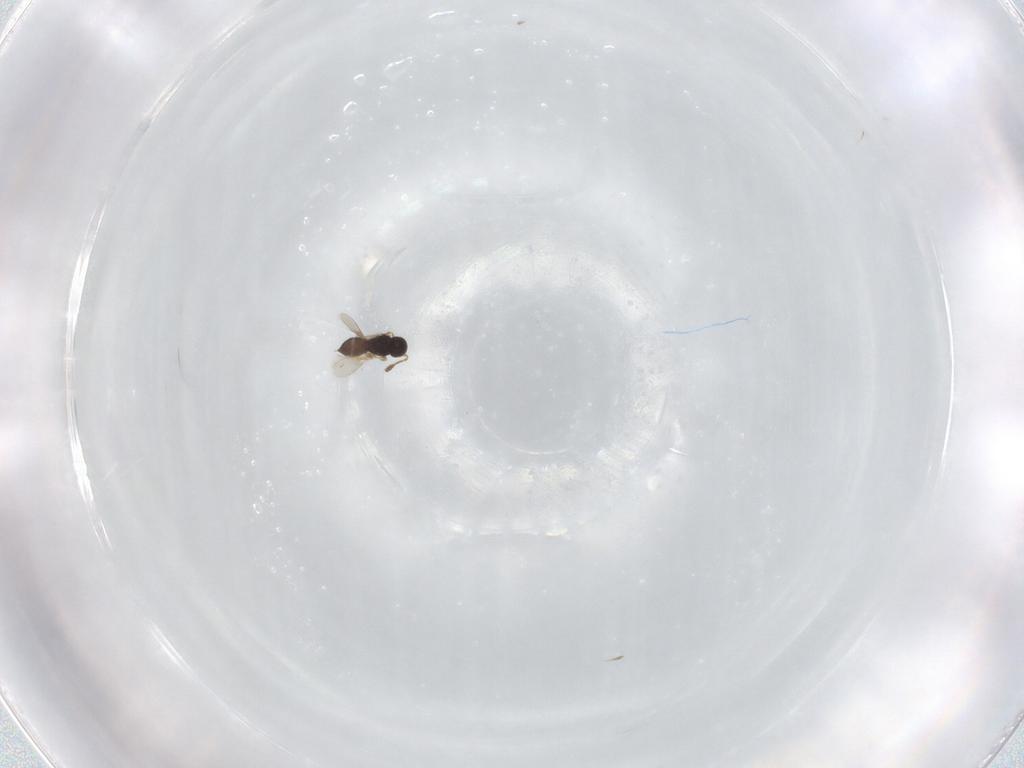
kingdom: Animalia
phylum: Arthropoda
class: Insecta
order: Hymenoptera
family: Scelionidae
